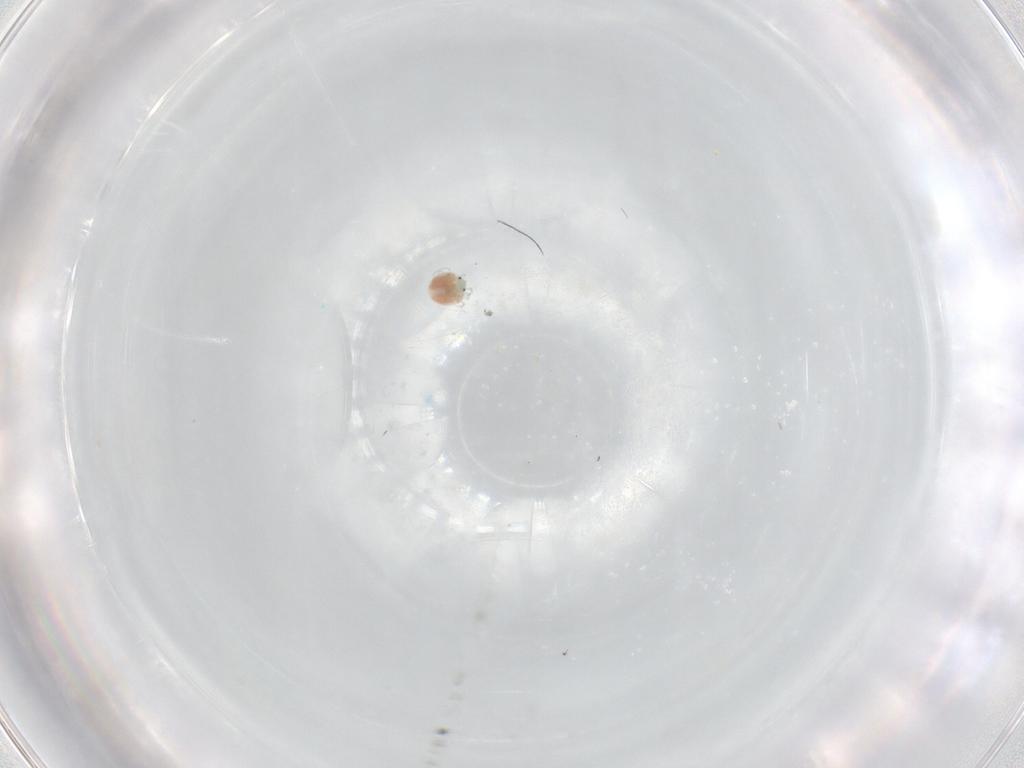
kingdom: Animalia
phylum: Arthropoda
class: Arachnida
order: Trombidiformes
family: Unionicolidae
